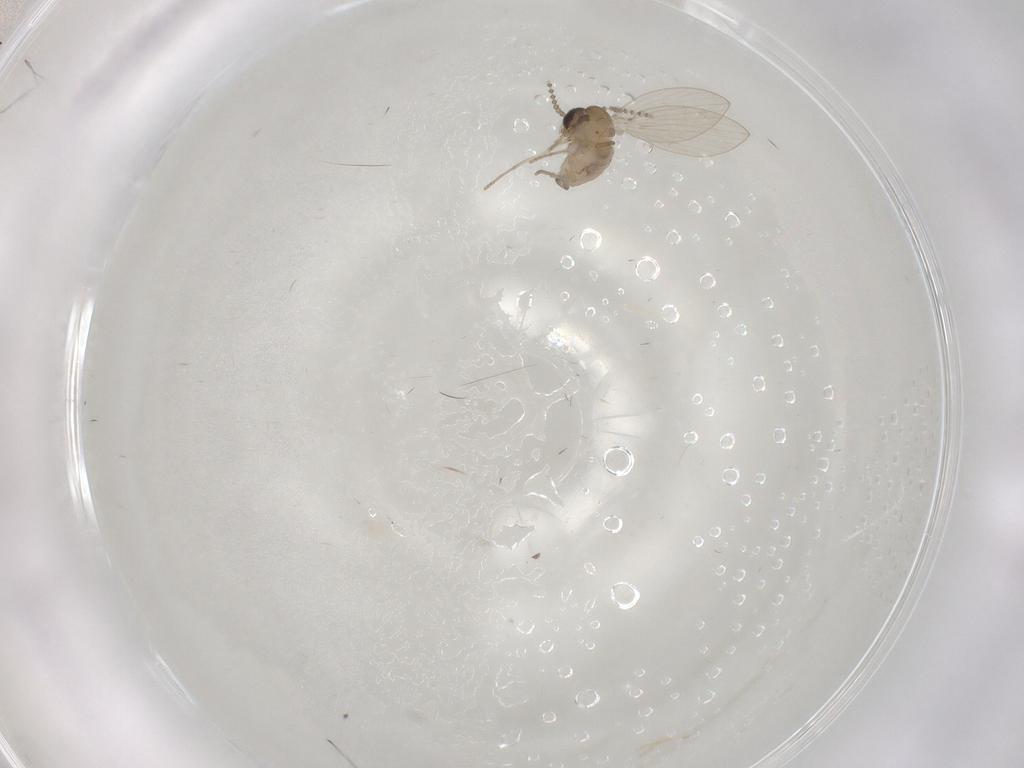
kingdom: Animalia
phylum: Arthropoda
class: Insecta
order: Diptera
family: Psychodidae
